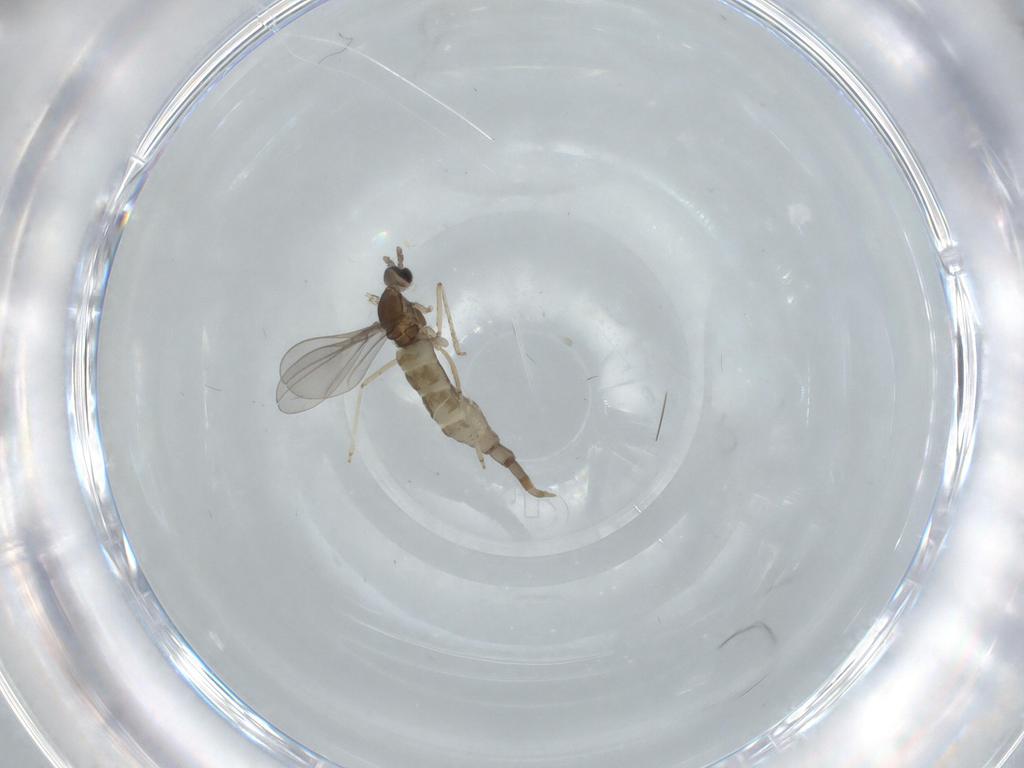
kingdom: Animalia
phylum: Arthropoda
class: Insecta
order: Diptera
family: Cecidomyiidae
